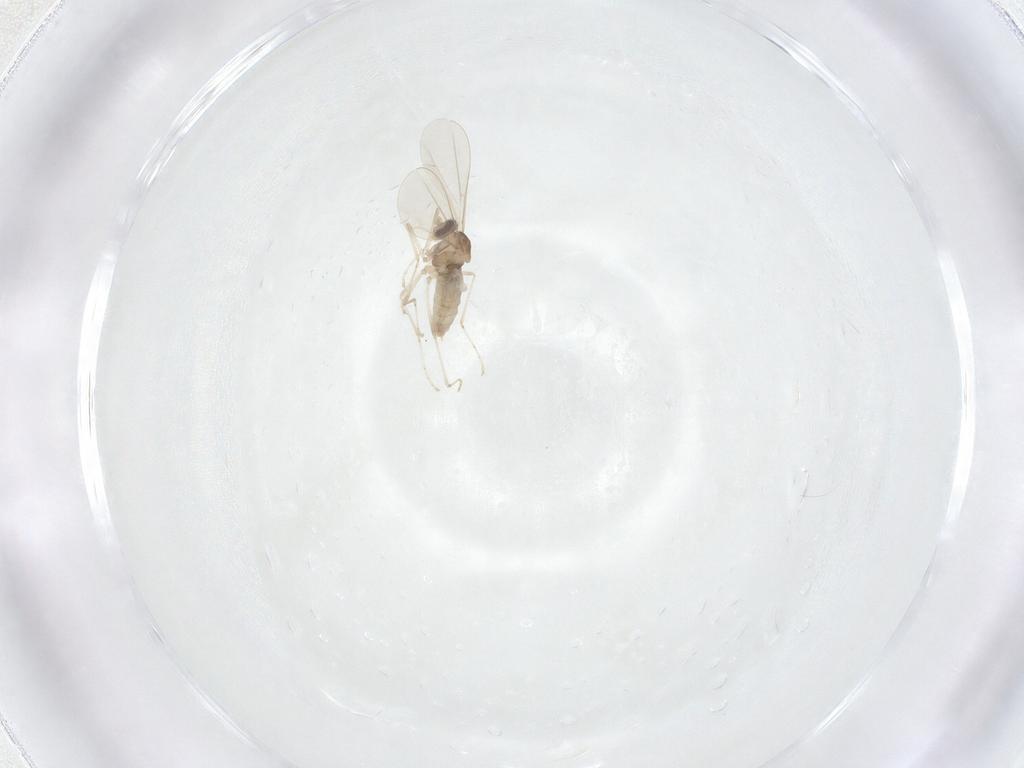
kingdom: Animalia
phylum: Arthropoda
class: Insecta
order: Diptera
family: Cecidomyiidae
